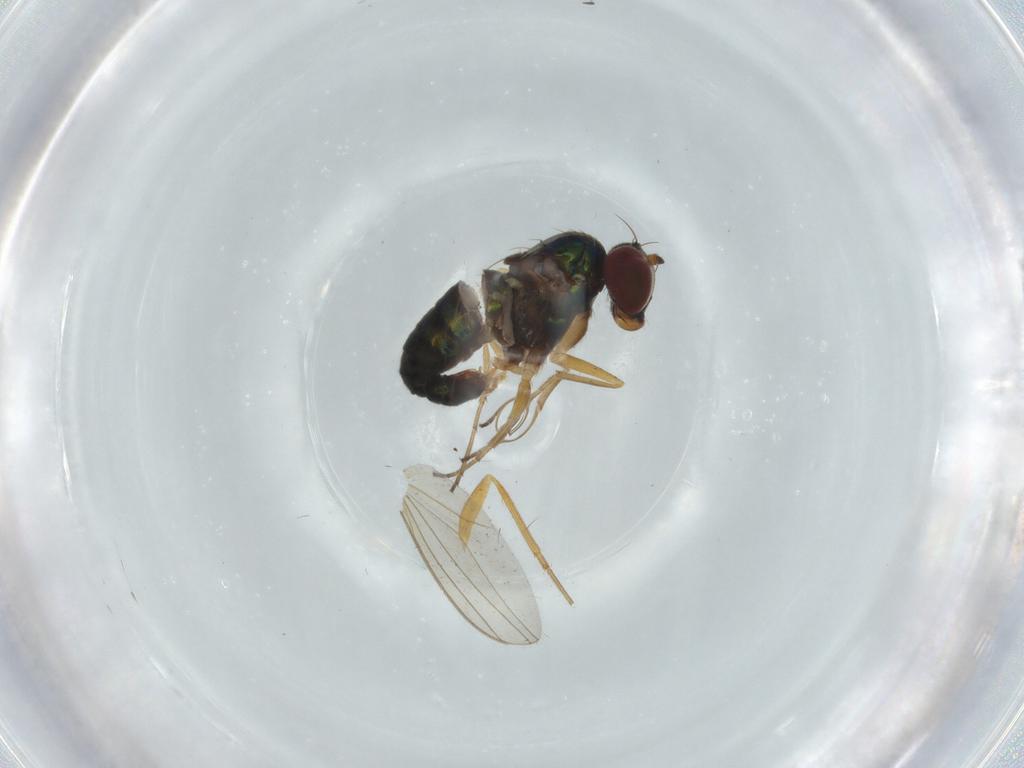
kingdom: Animalia
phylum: Arthropoda
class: Insecta
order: Diptera
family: Dolichopodidae
